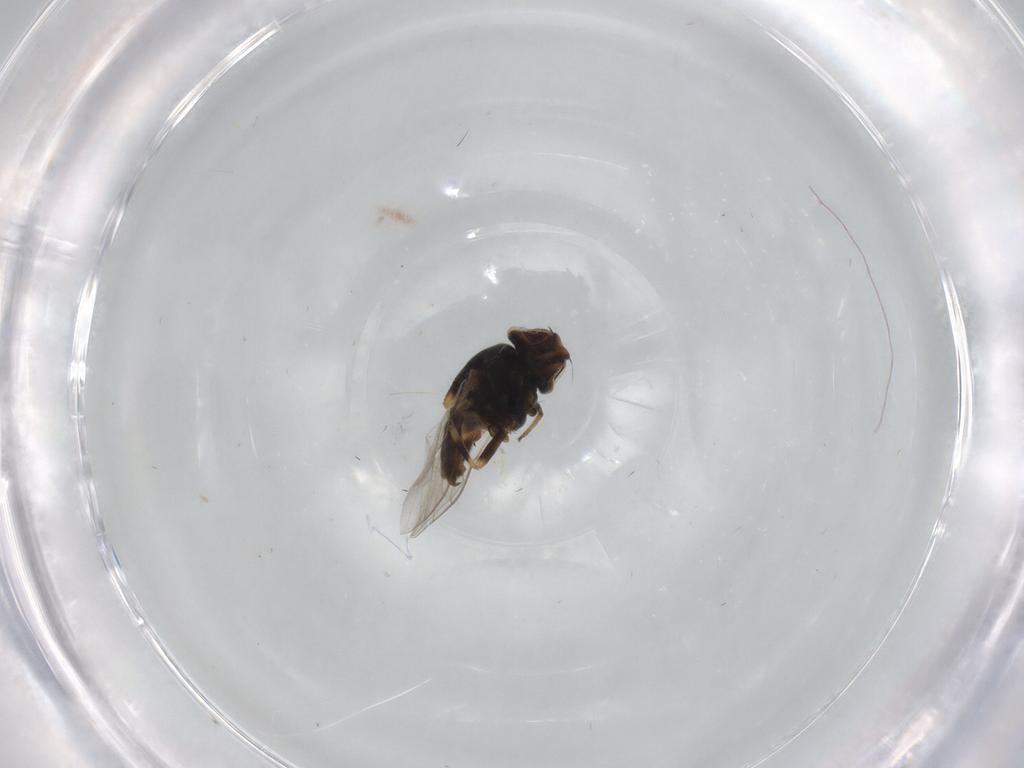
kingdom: Animalia
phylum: Arthropoda
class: Insecta
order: Diptera
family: Chloropidae
